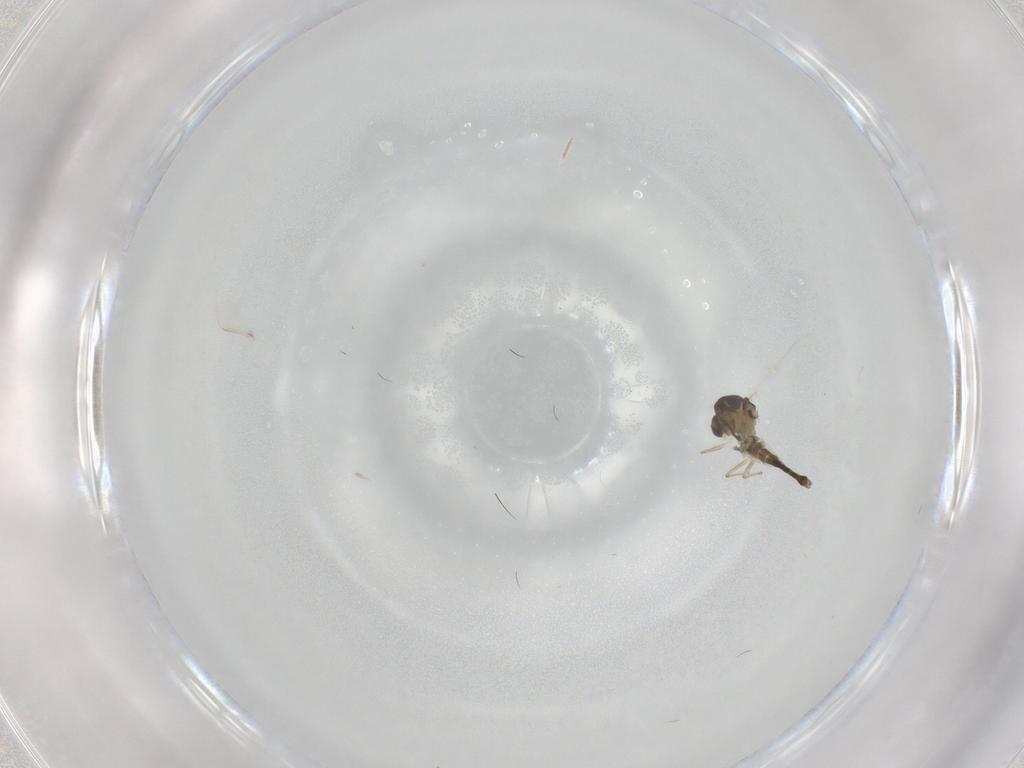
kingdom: Animalia
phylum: Arthropoda
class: Insecta
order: Diptera
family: Chironomidae
